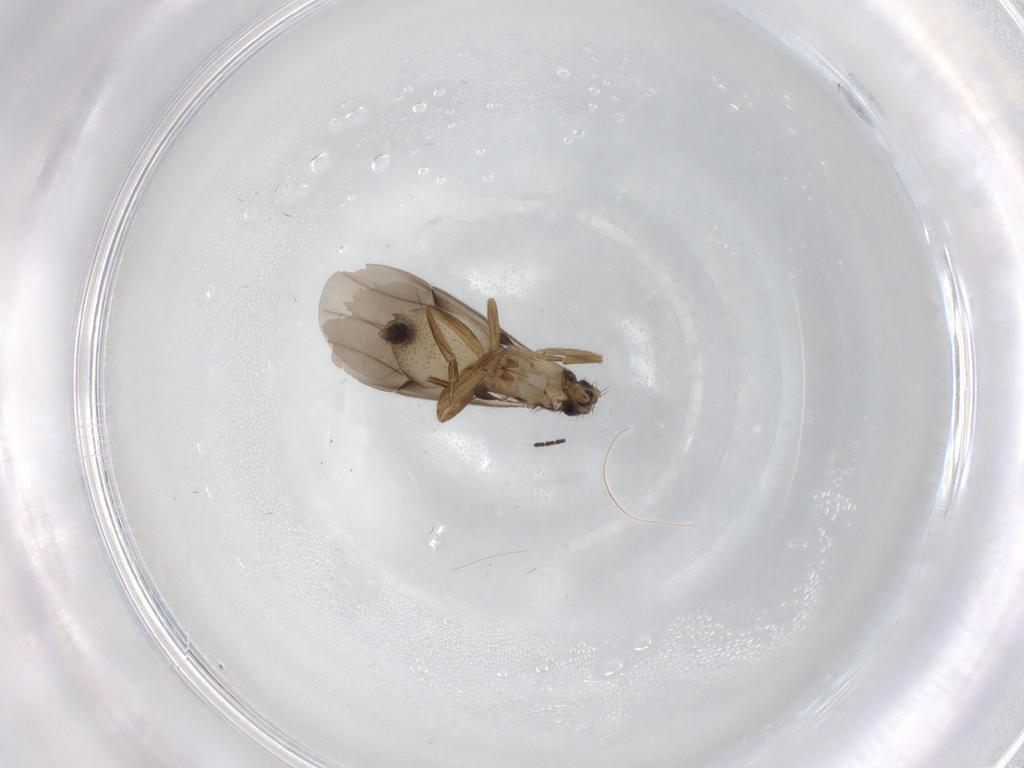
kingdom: Animalia
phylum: Arthropoda
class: Insecta
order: Diptera
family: Phoridae
